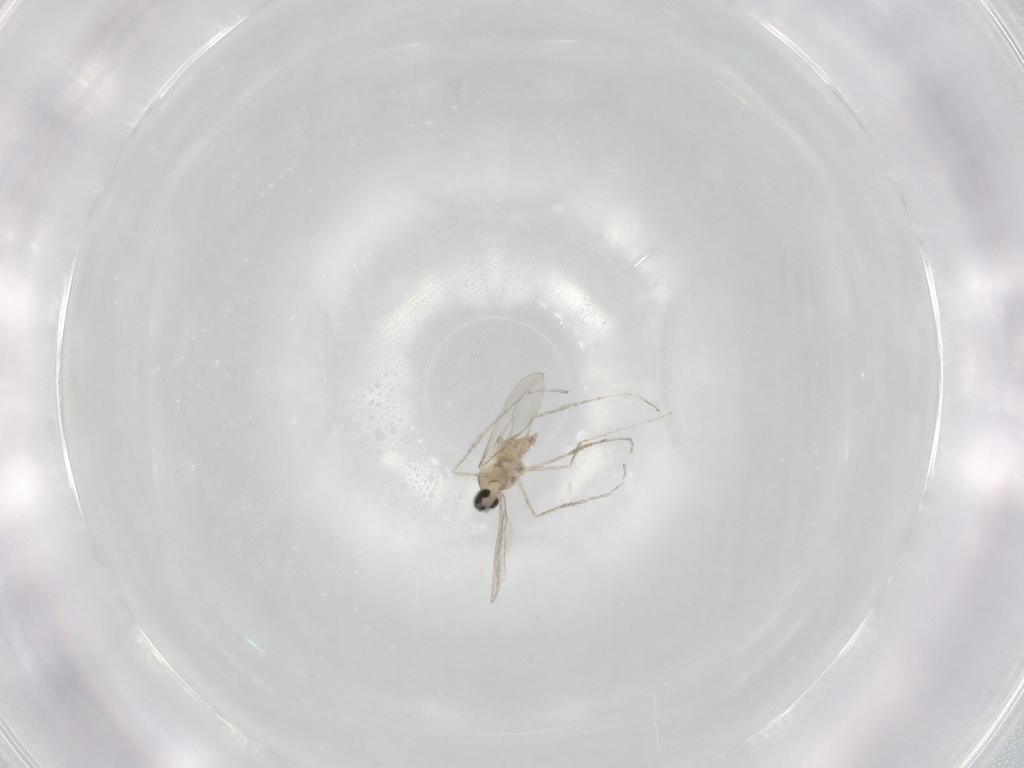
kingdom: Animalia
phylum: Arthropoda
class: Insecta
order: Diptera
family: Cecidomyiidae
